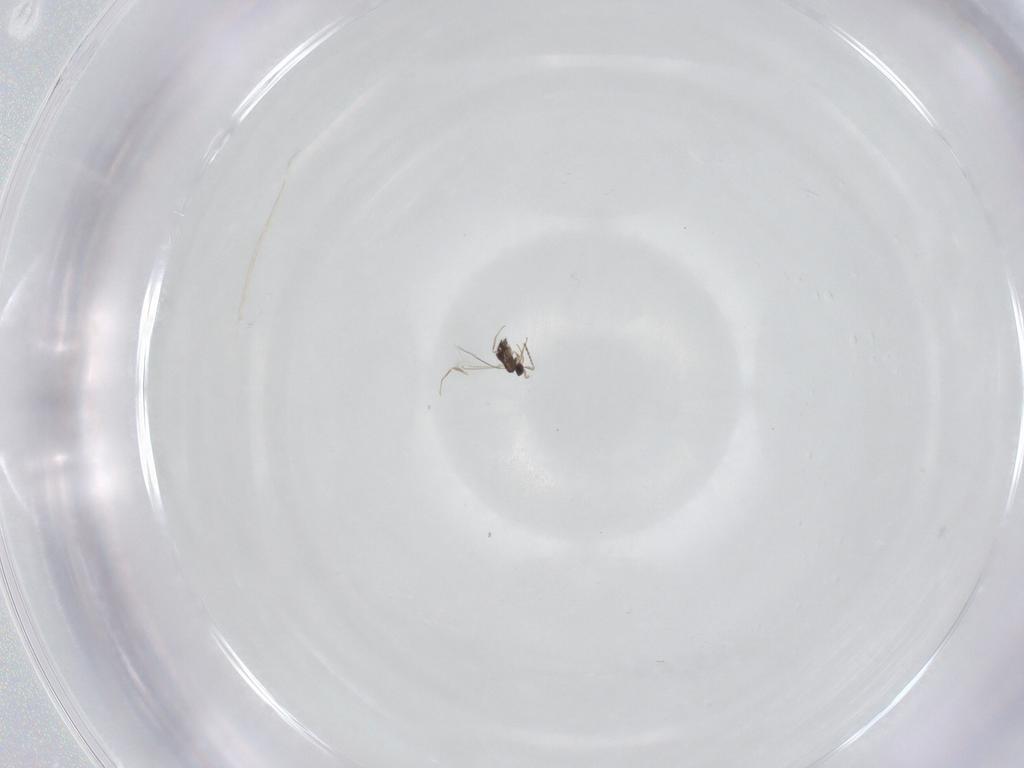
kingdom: Animalia
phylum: Arthropoda
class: Insecta
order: Hymenoptera
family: Mymaridae
